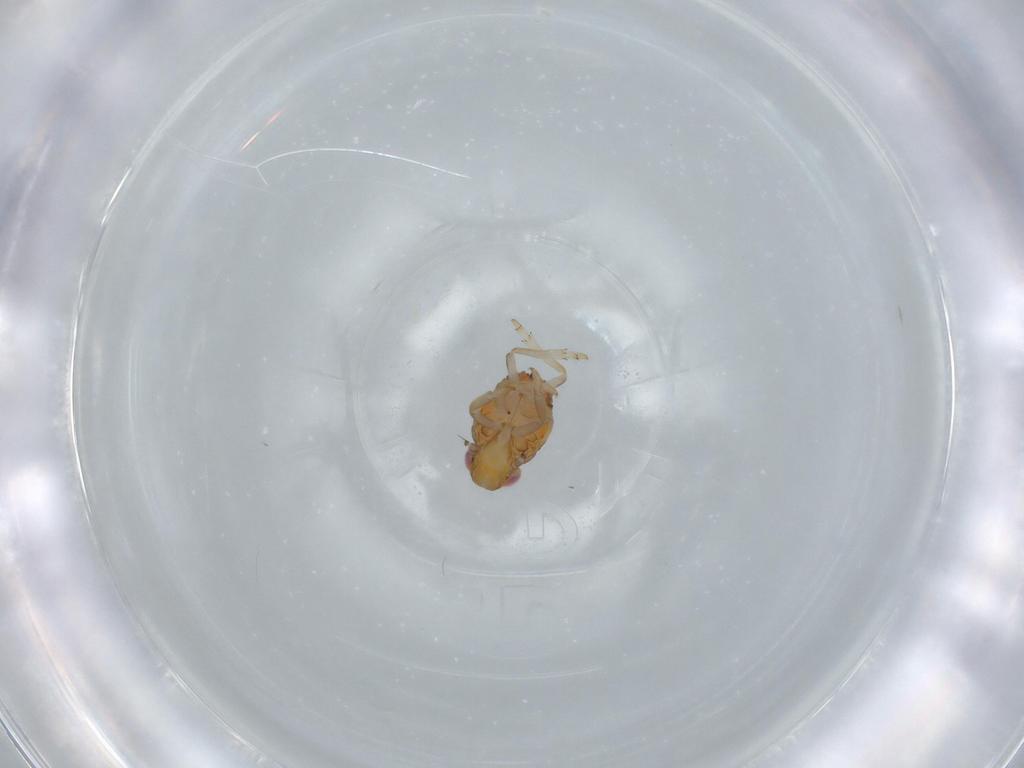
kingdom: Animalia
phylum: Arthropoda
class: Insecta
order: Hemiptera
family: Issidae
